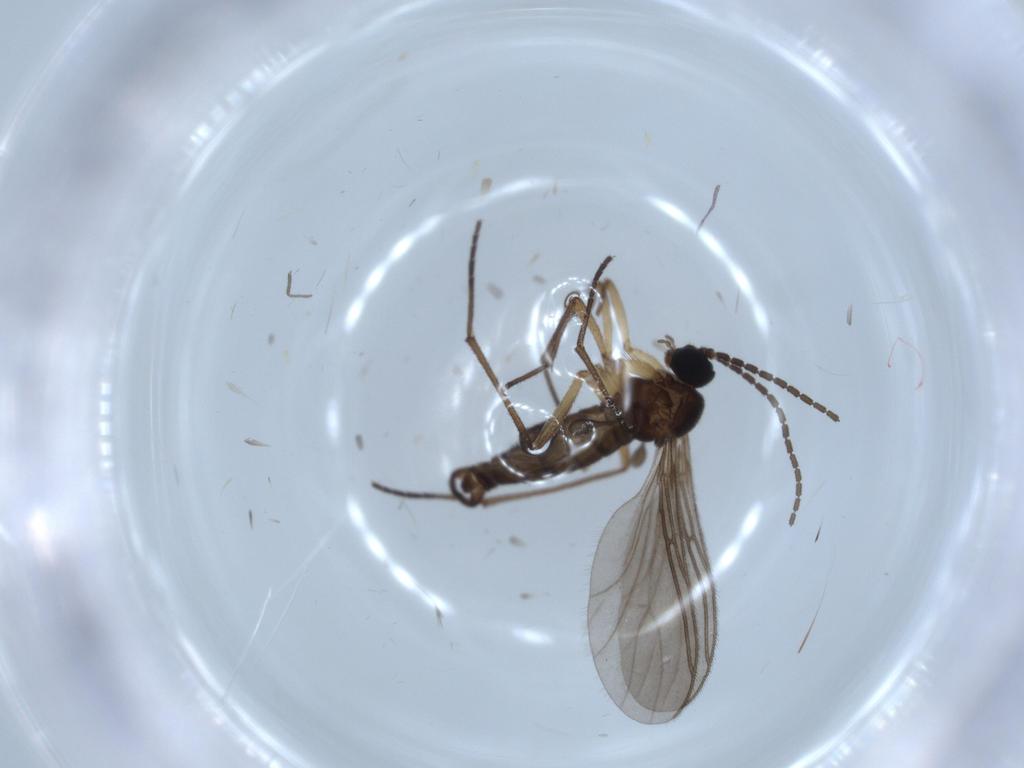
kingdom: Animalia
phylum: Arthropoda
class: Insecta
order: Diptera
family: Sciaridae
